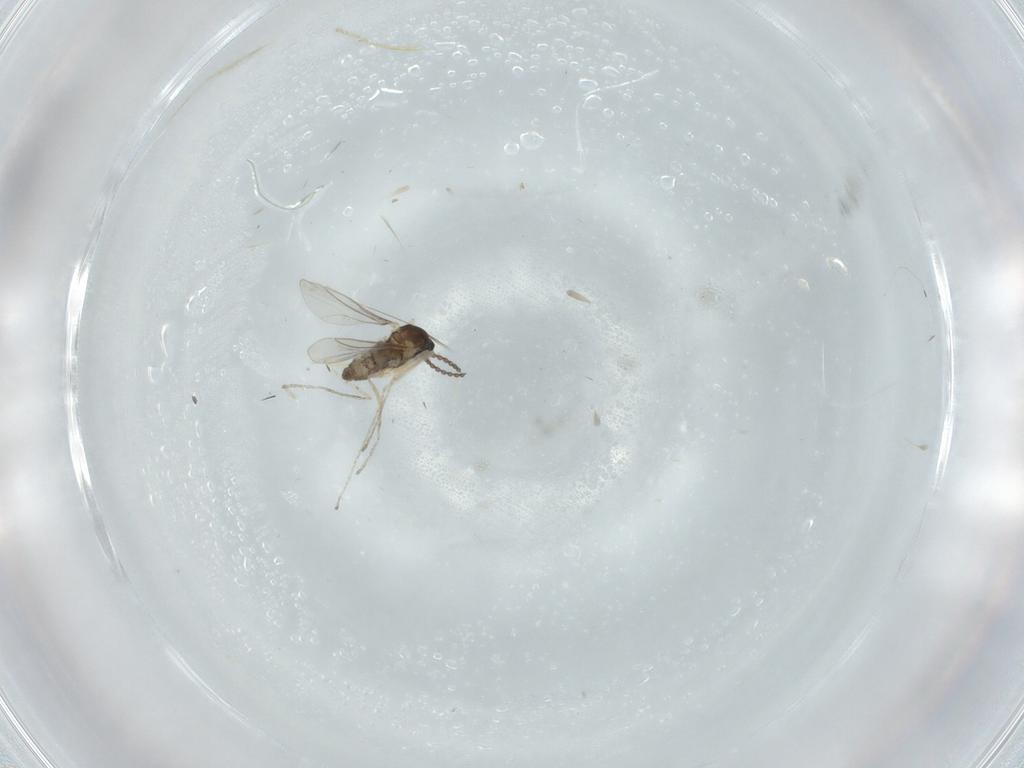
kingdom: Animalia
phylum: Arthropoda
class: Insecta
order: Diptera
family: Cecidomyiidae
